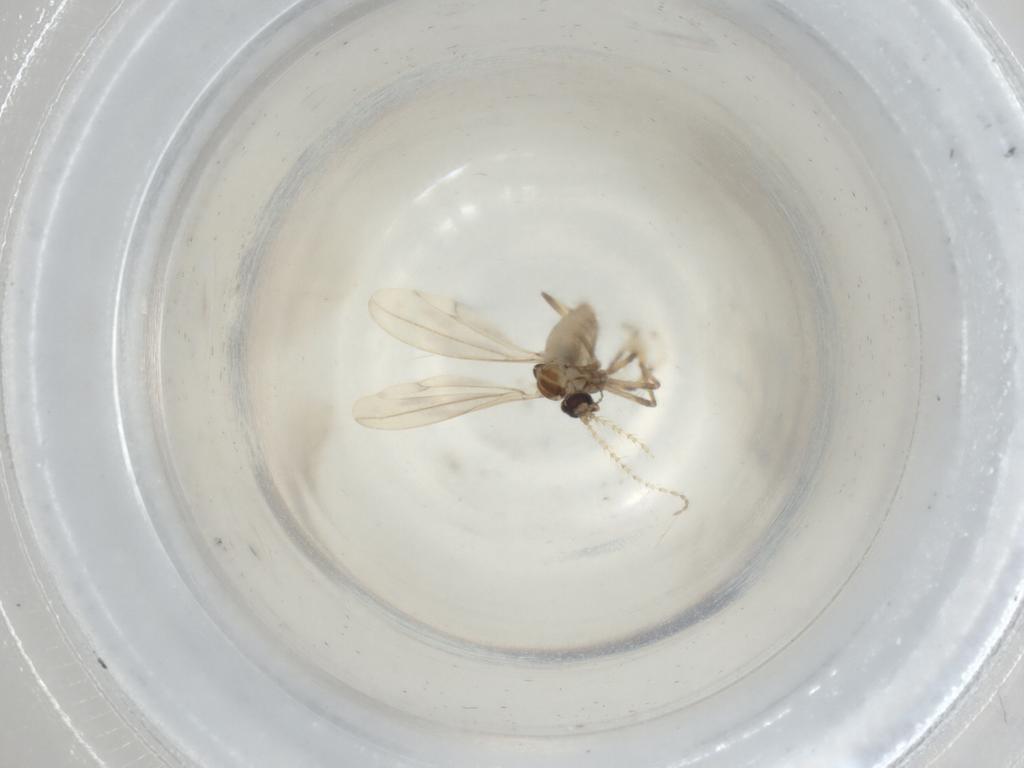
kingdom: Animalia
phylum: Arthropoda
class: Insecta
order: Diptera
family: Cecidomyiidae
